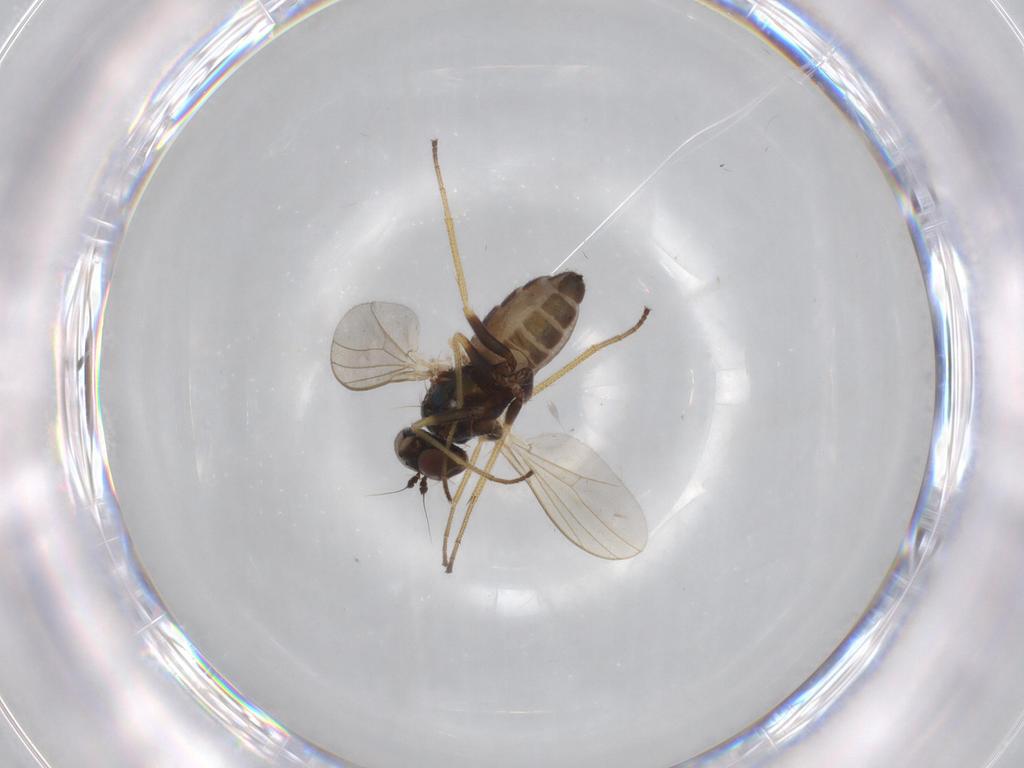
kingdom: Animalia
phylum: Arthropoda
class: Insecta
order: Diptera
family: Dolichopodidae
